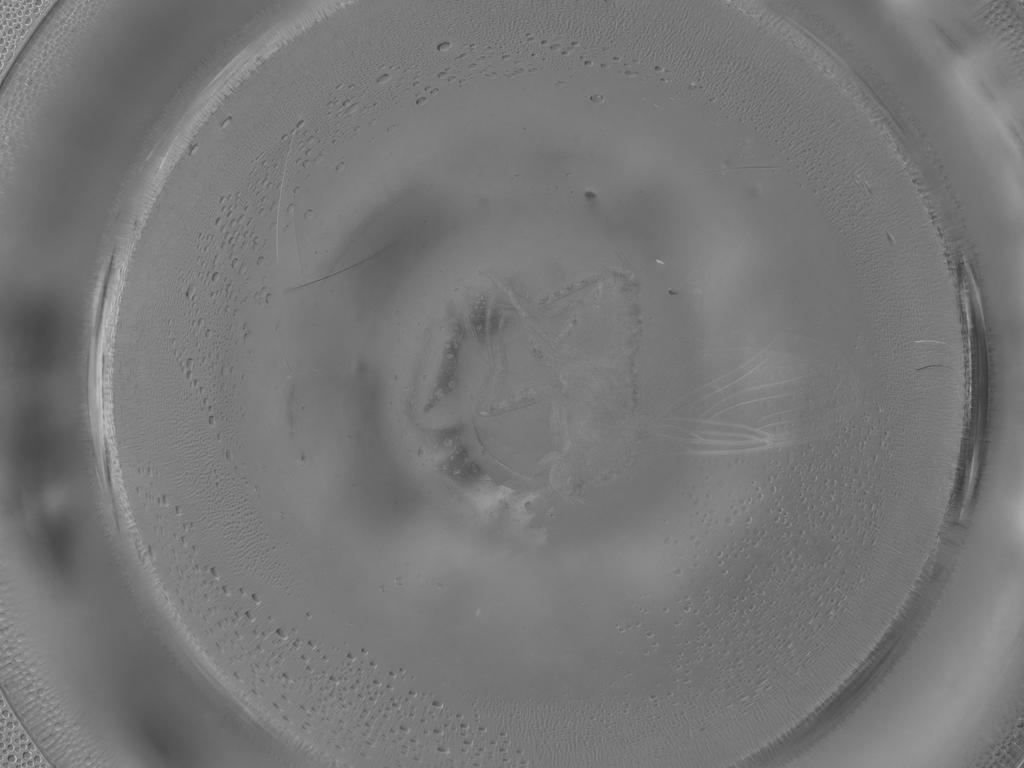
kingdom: Animalia
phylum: Arthropoda
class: Insecta
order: Diptera
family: Cecidomyiidae
